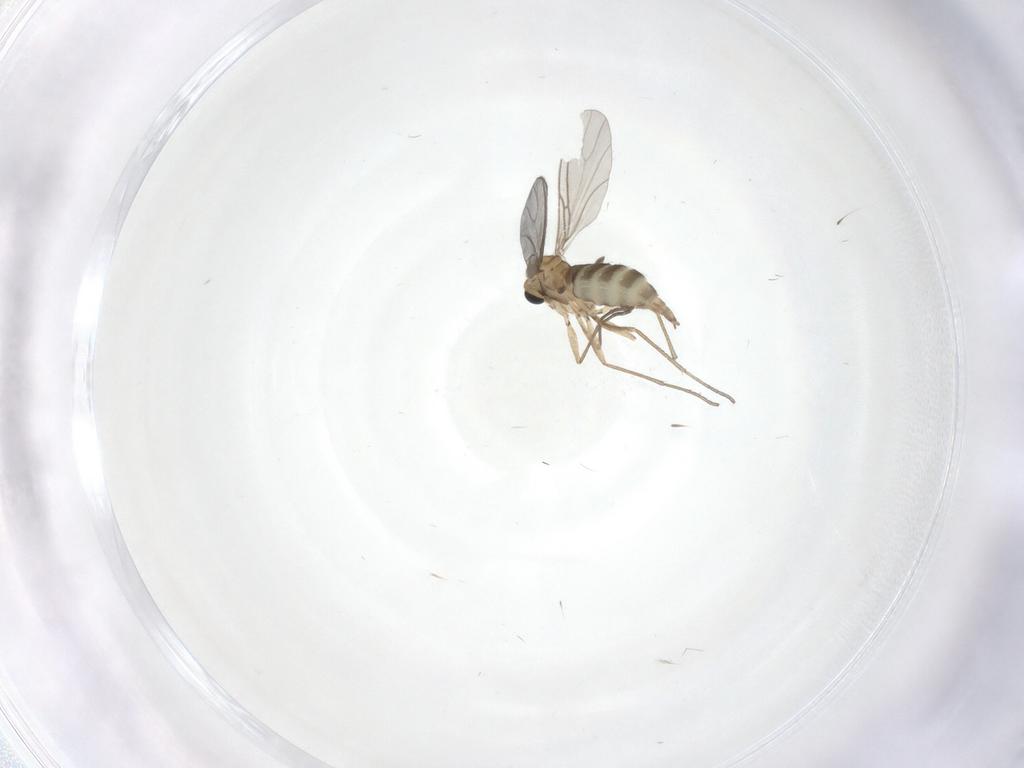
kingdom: Animalia
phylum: Arthropoda
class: Insecta
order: Diptera
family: Sciaridae
